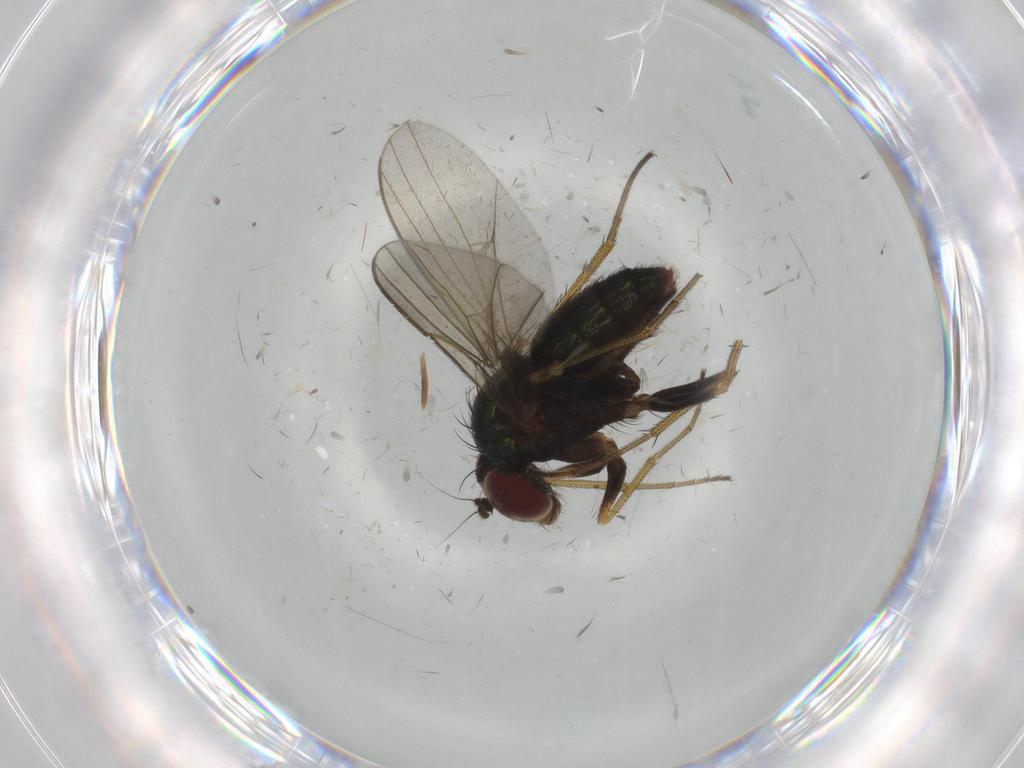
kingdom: Animalia
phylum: Arthropoda
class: Insecta
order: Diptera
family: Dolichopodidae
